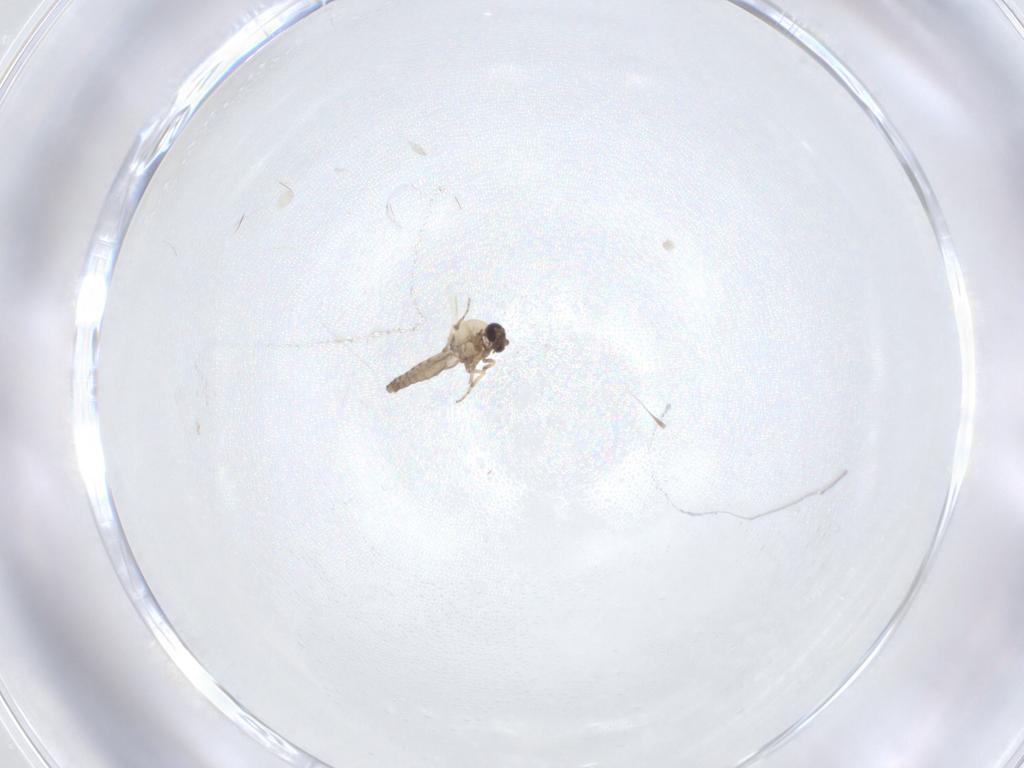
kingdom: Animalia
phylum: Arthropoda
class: Insecta
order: Diptera
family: Ceratopogonidae
